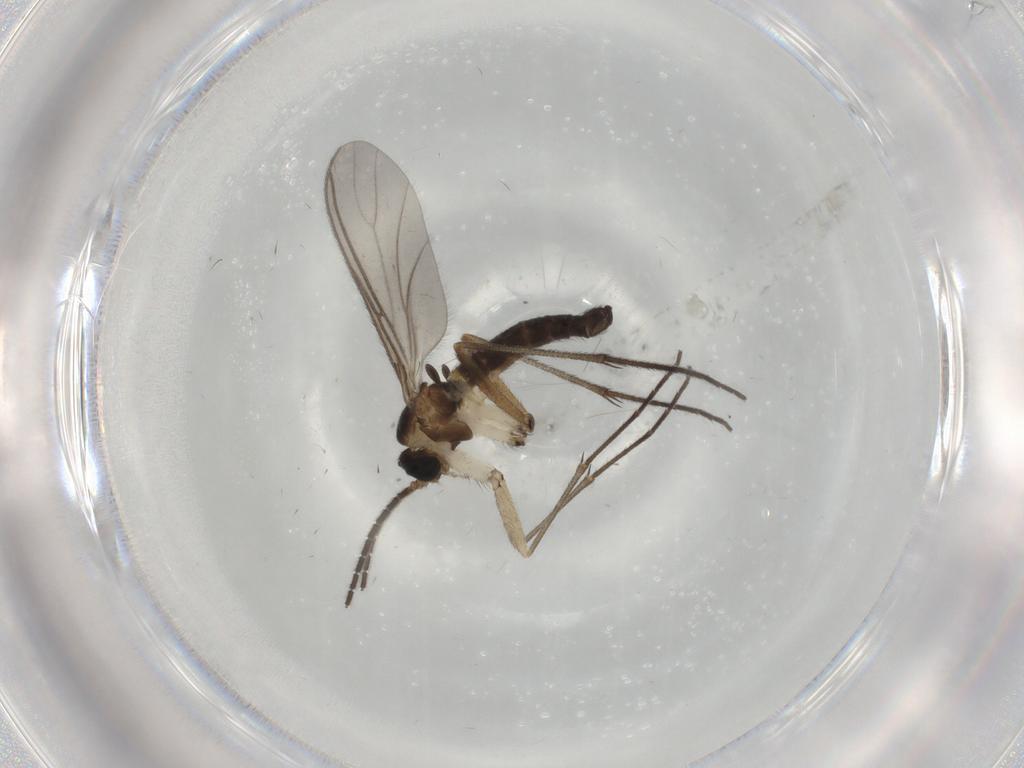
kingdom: Animalia
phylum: Arthropoda
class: Insecta
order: Diptera
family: Sciaridae
